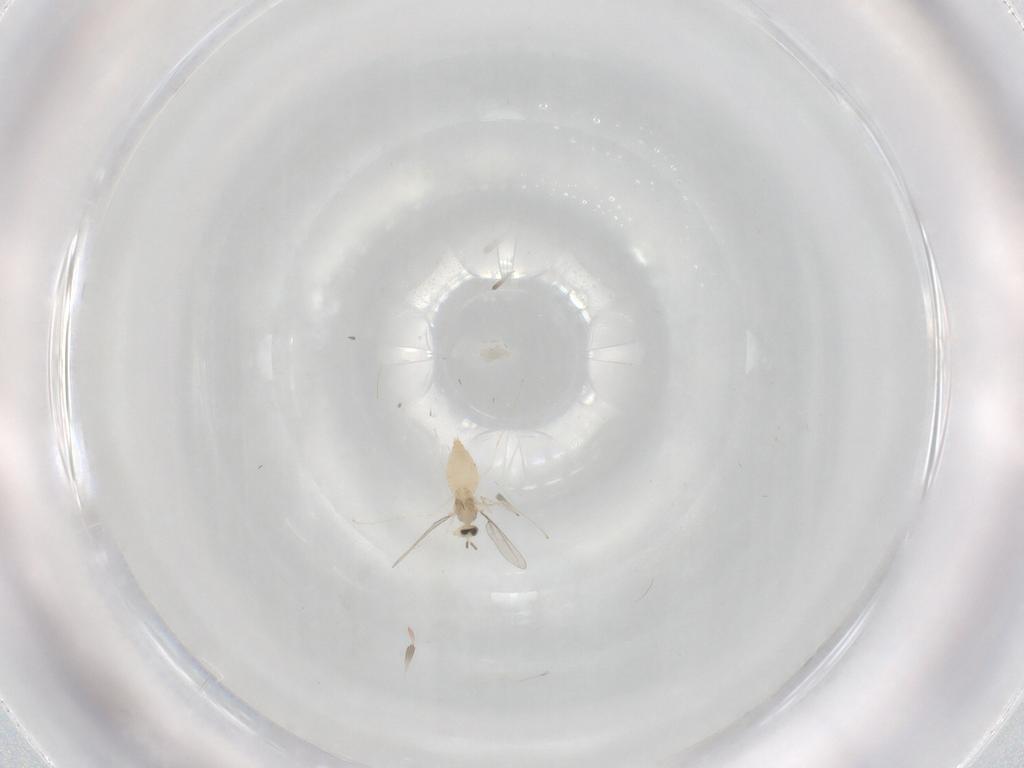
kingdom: Animalia
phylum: Arthropoda
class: Insecta
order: Diptera
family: Cecidomyiidae
